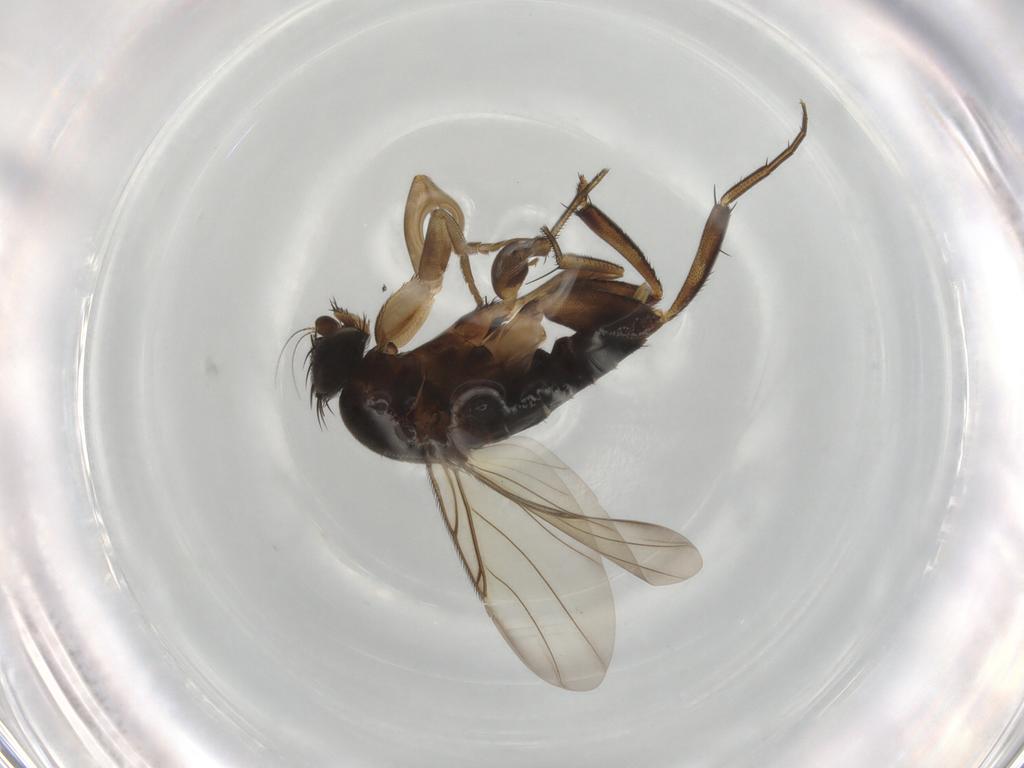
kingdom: Animalia
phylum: Arthropoda
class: Insecta
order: Diptera
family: Phoridae
